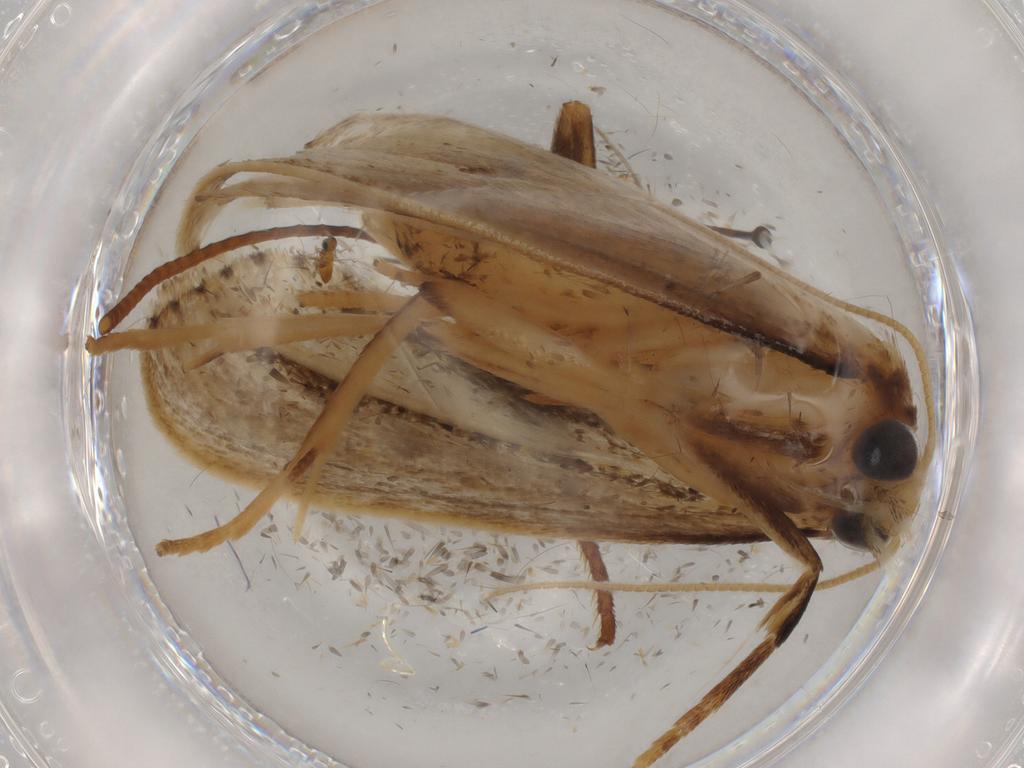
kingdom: Animalia
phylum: Arthropoda
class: Insecta
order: Lepidoptera
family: Crambidae
